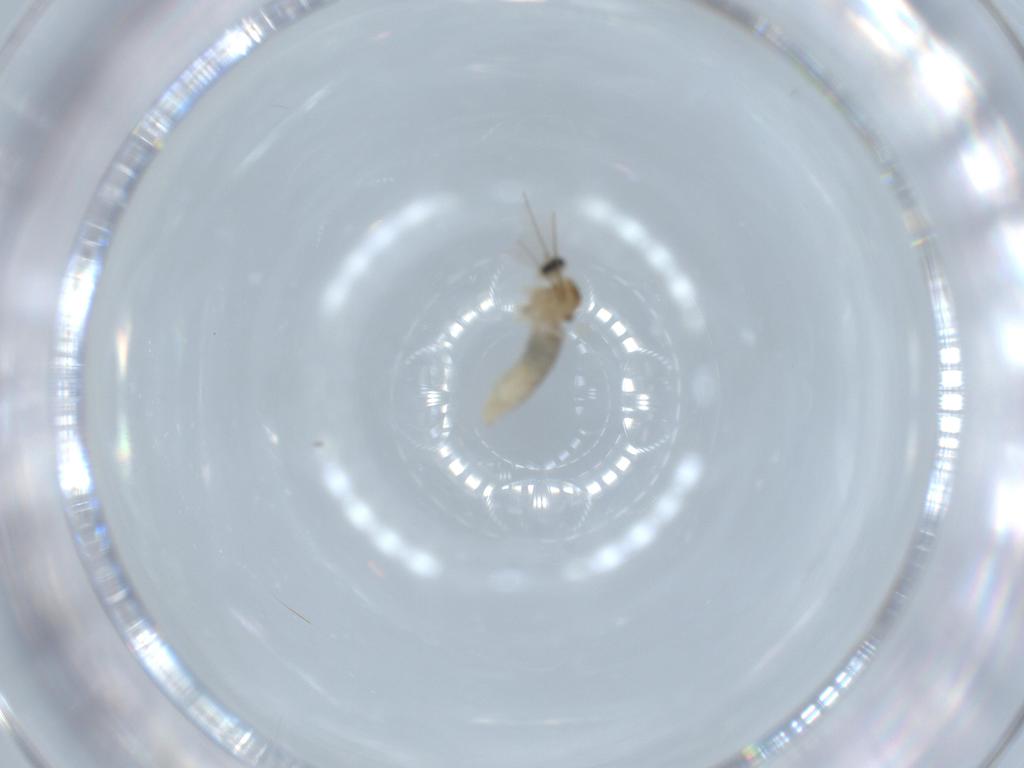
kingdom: Animalia
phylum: Arthropoda
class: Insecta
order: Diptera
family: Cecidomyiidae
